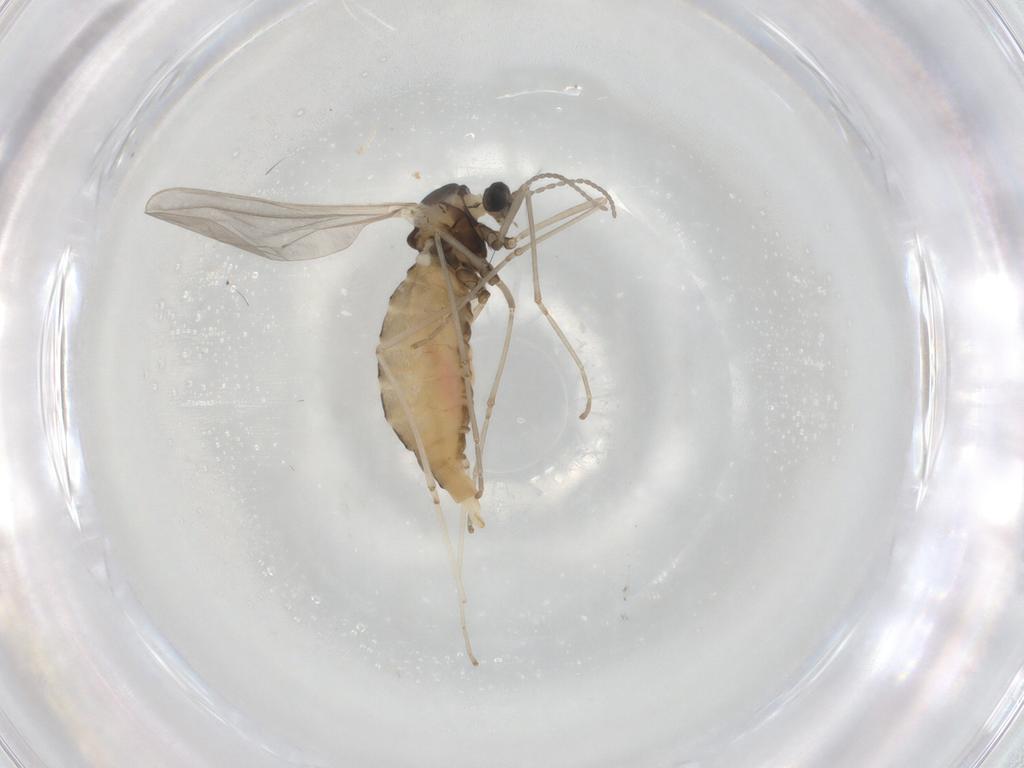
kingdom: Animalia
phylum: Arthropoda
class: Insecta
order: Diptera
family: Cecidomyiidae
